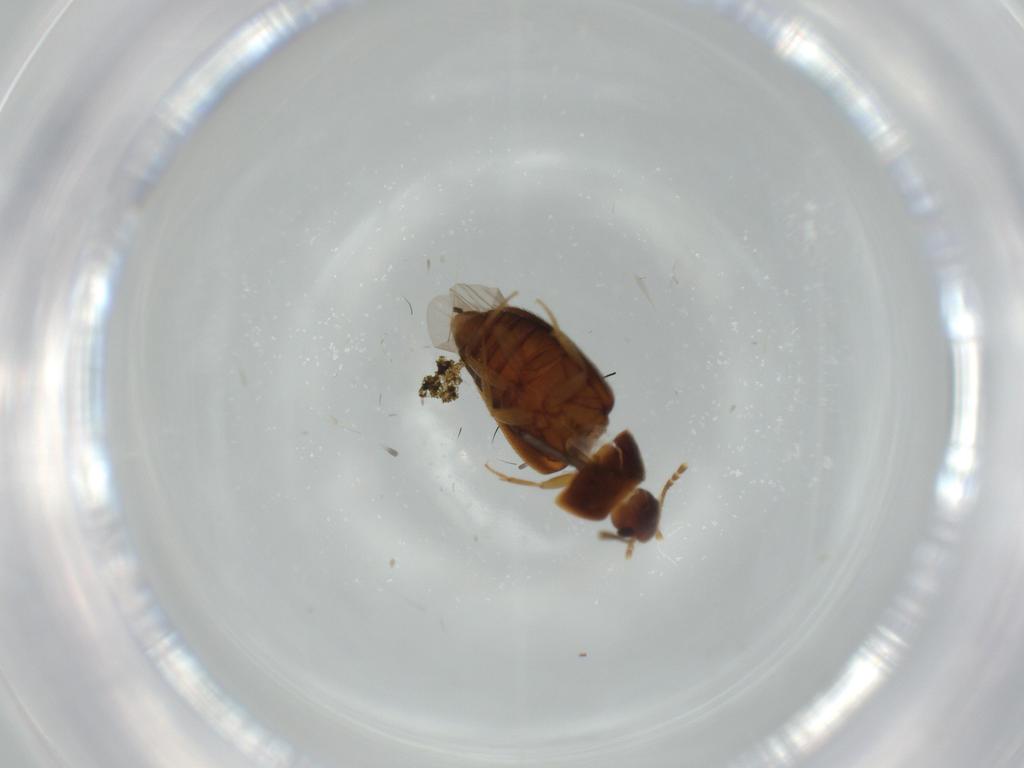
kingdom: Animalia
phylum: Arthropoda
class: Insecta
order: Coleoptera
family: Mycetophagidae
